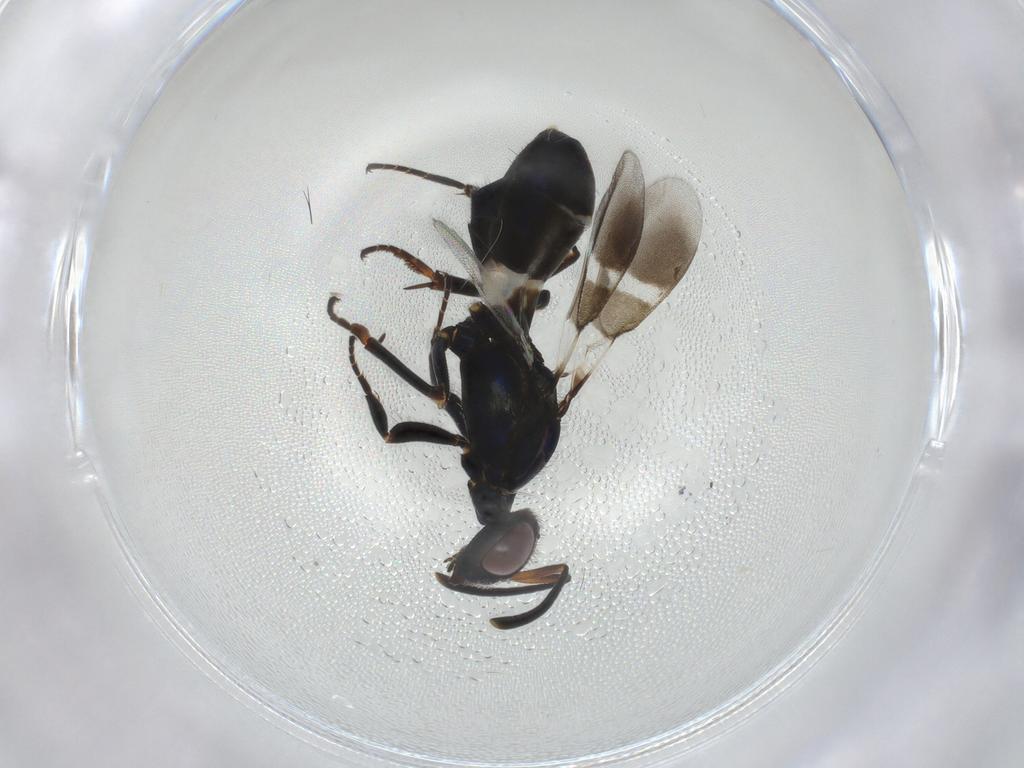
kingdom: Animalia
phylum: Arthropoda
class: Insecta
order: Hymenoptera
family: Eupelmidae
